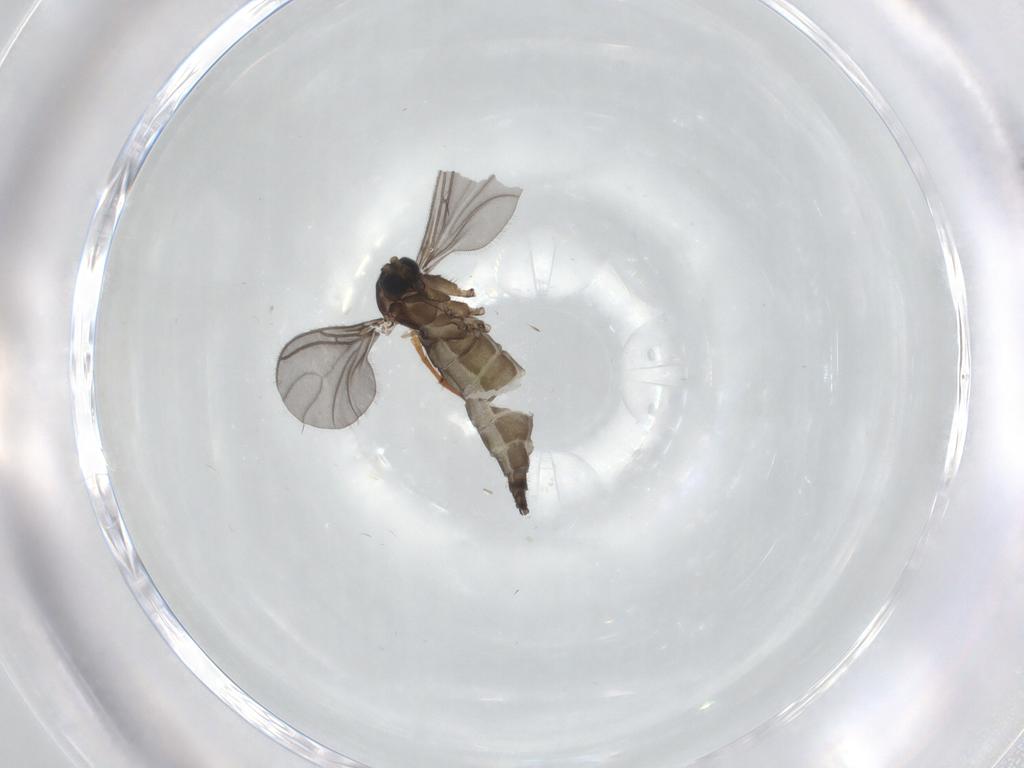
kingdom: Animalia
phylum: Arthropoda
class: Insecta
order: Diptera
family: Sciaridae
